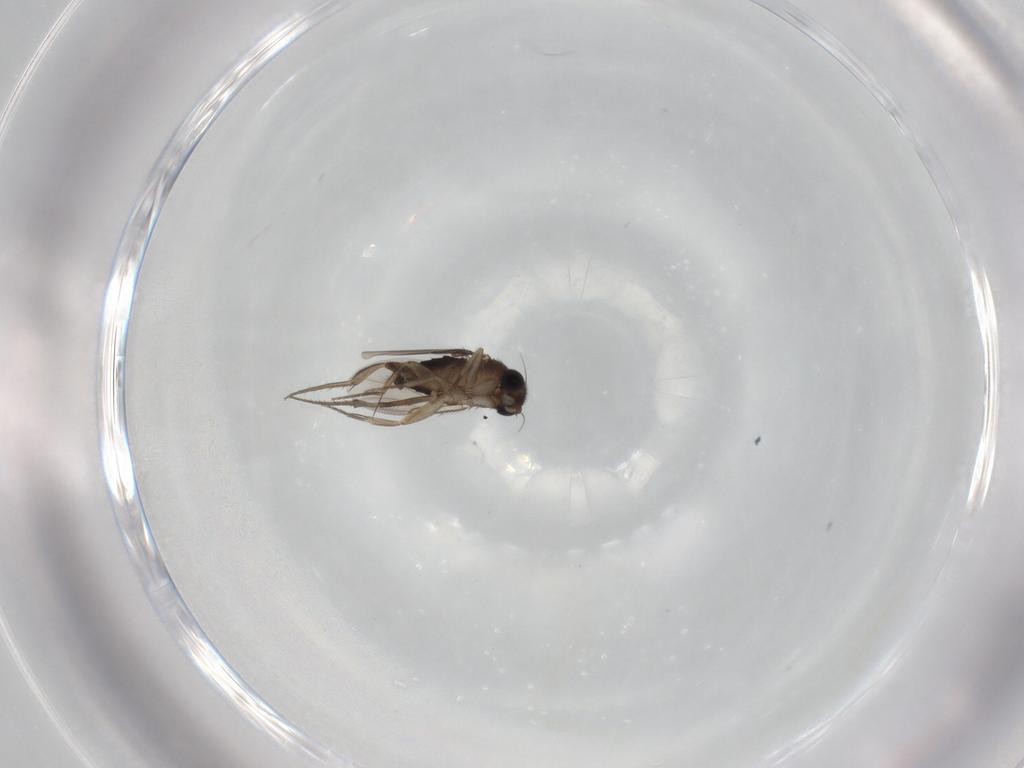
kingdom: Animalia
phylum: Arthropoda
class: Insecta
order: Diptera
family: Phoridae
